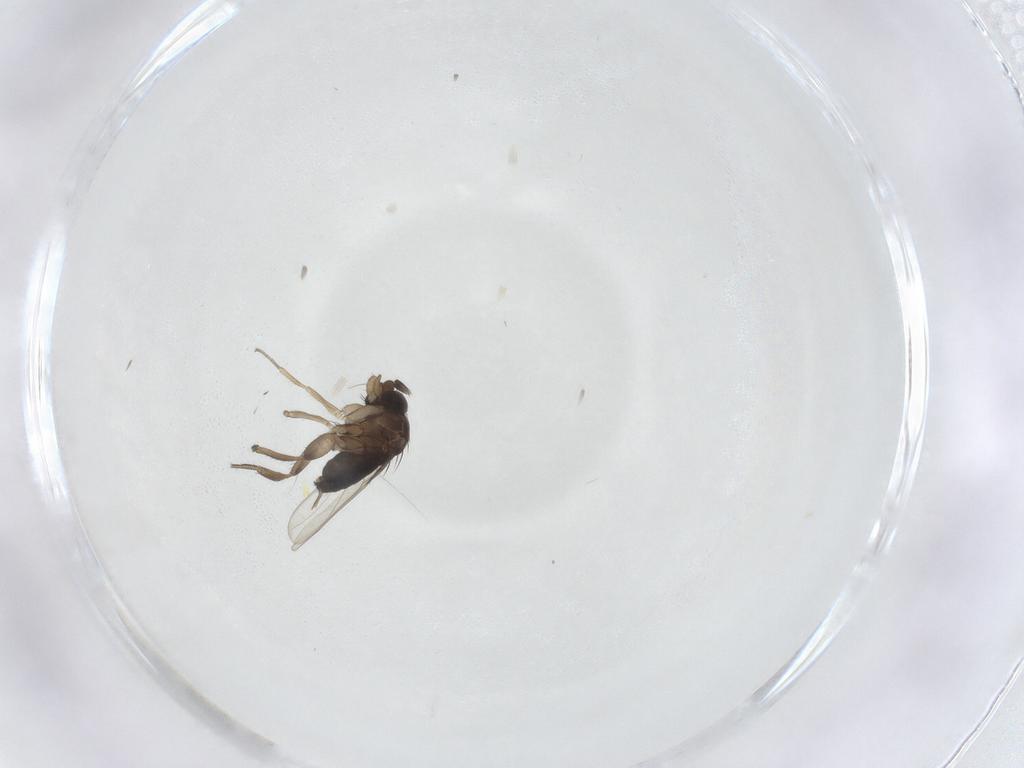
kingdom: Animalia
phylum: Arthropoda
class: Insecta
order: Diptera
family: Phoridae
